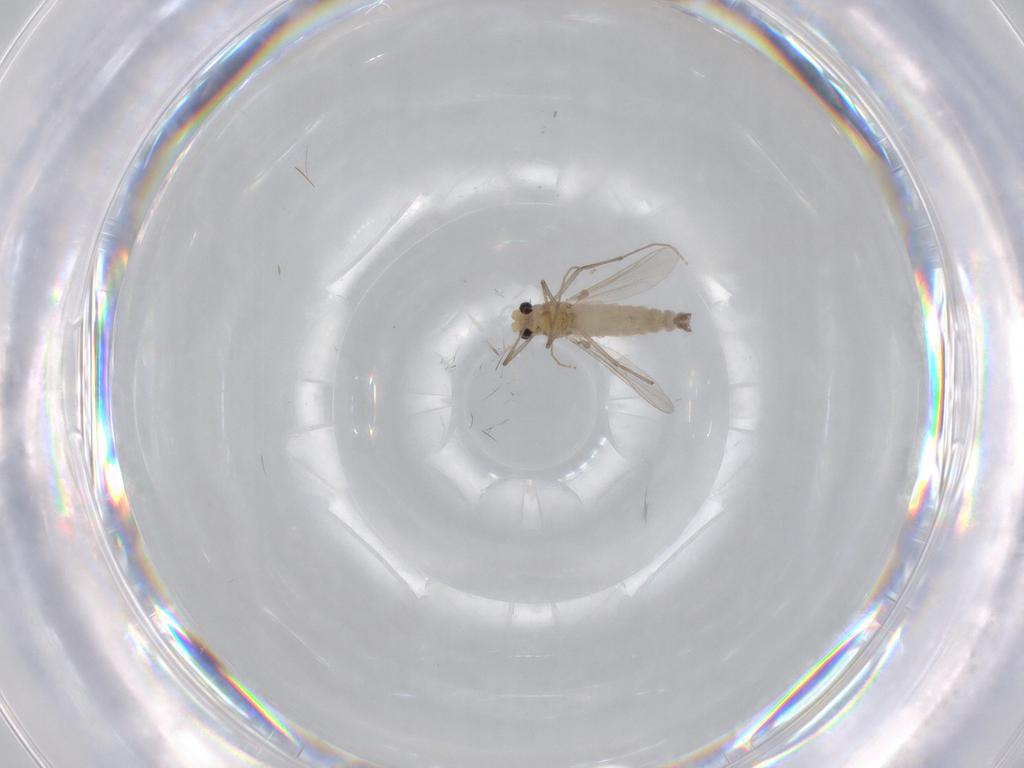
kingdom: Animalia
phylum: Arthropoda
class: Insecta
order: Diptera
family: Chironomidae
